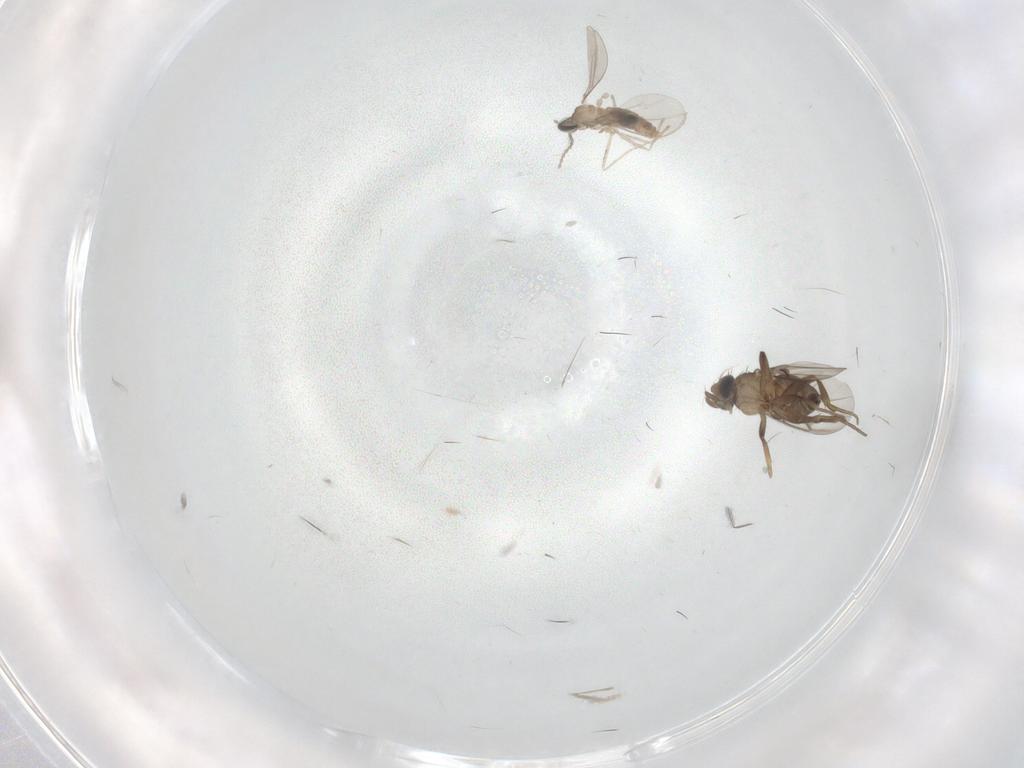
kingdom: Animalia
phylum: Arthropoda
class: Insecta
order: Diptera
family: Phoridae
